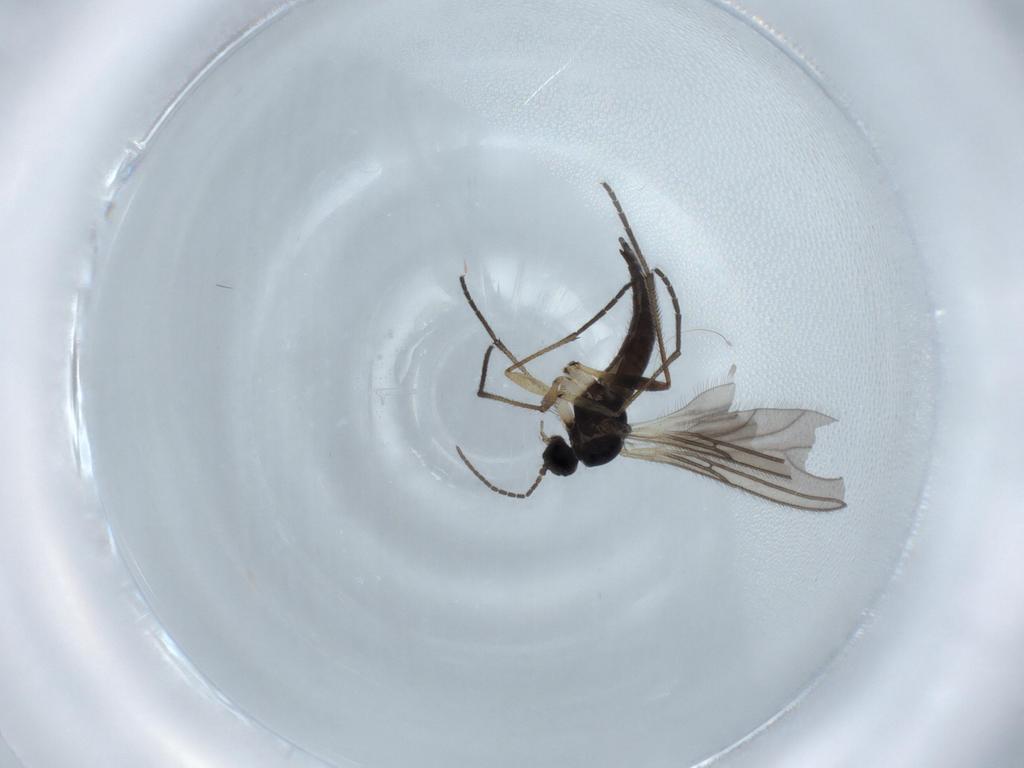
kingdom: Animalia
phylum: Arthropoda
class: Insecta
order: Diptera
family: Sciaridae
